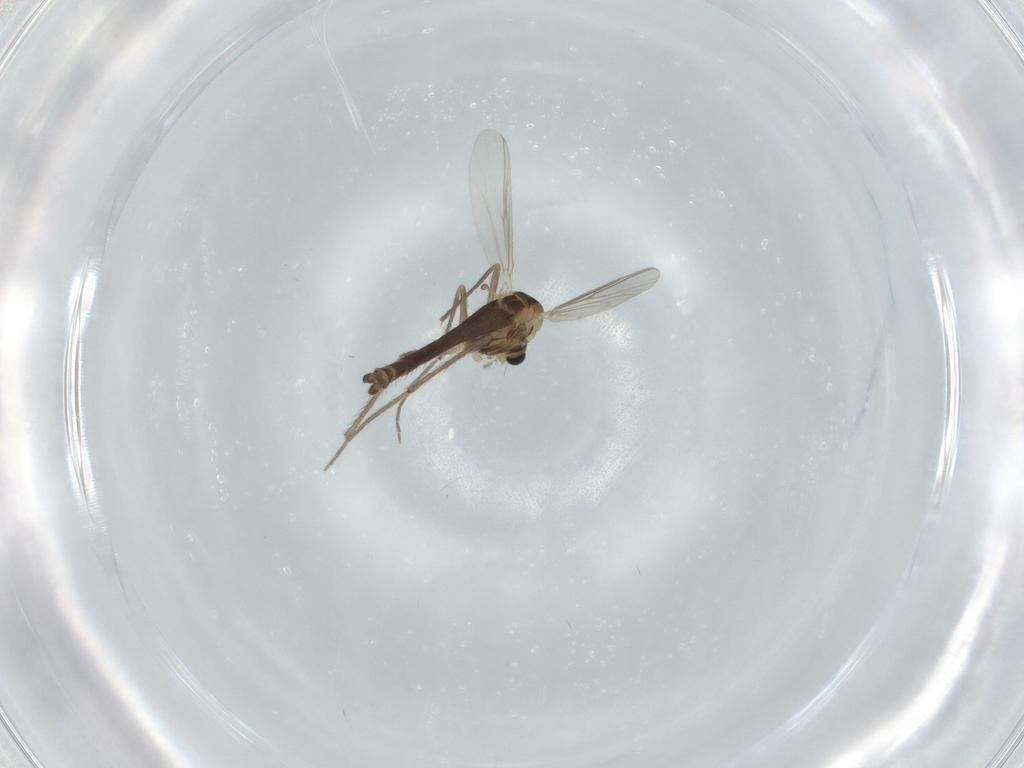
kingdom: Animalia
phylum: Arthropoda
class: Insecta
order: Diptera
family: Chironomidae
